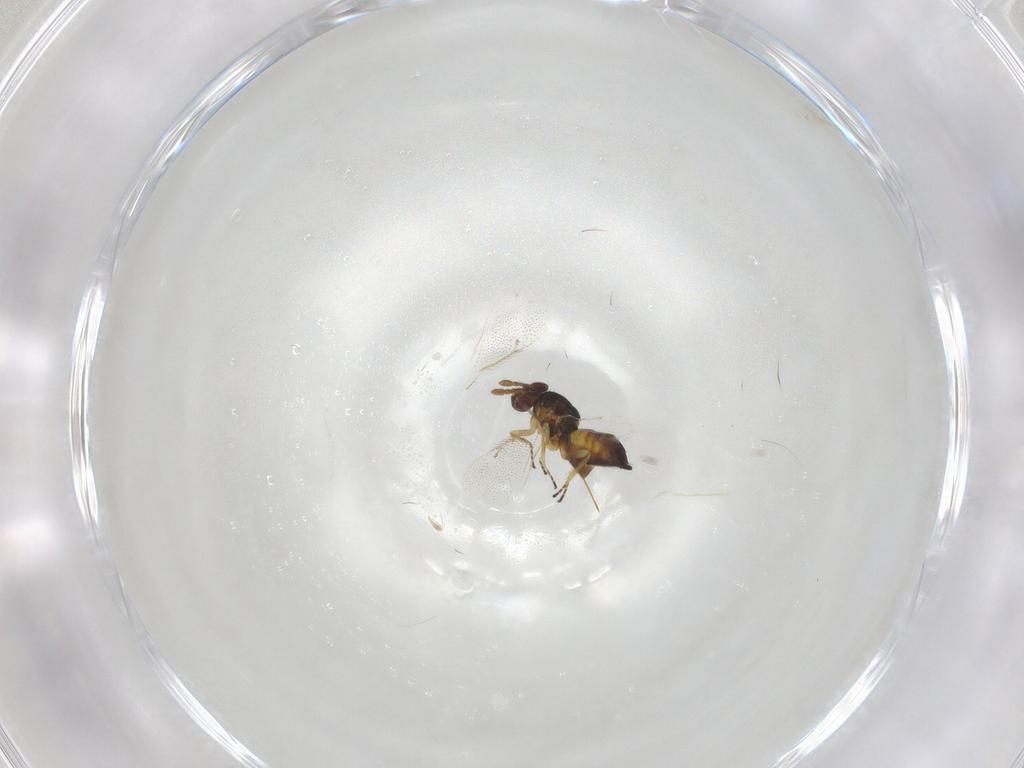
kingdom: Animalia
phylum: Arthropoda
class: Insecta
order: Hymenoptera
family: Eulophidae
